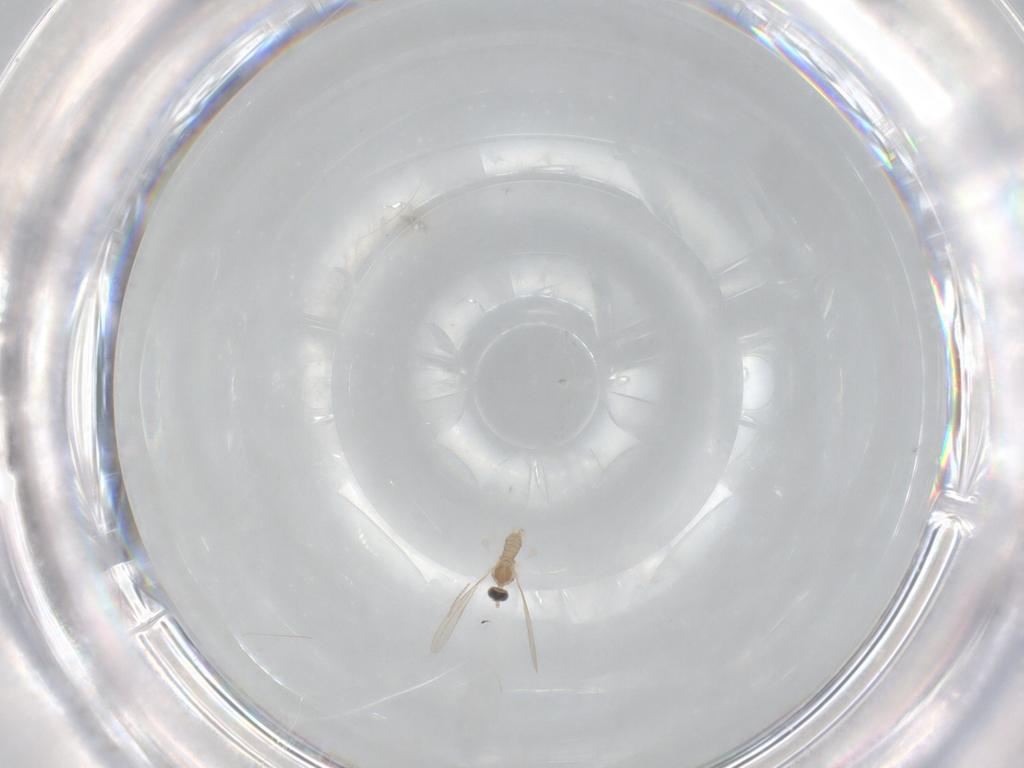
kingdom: Animalia
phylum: Arthropoda
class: Insecta
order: Diptera
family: Cecidomyiidae
